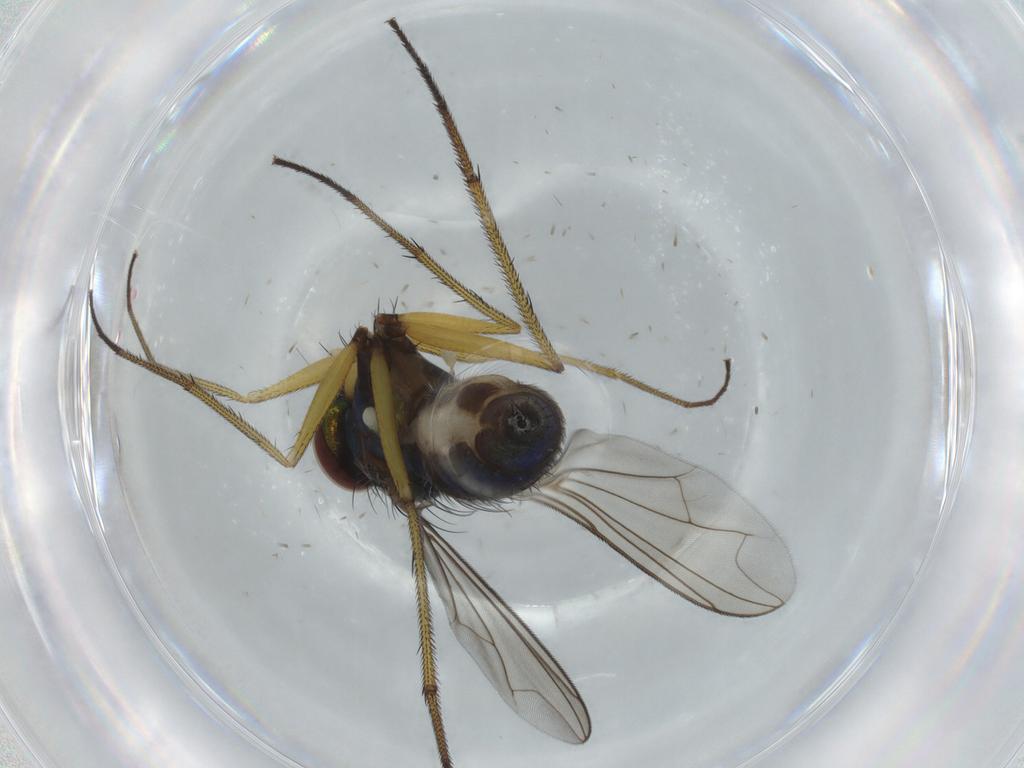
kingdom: Animalia
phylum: Arthropoda
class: Insecta
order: Diptera
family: Dolichopodidae
